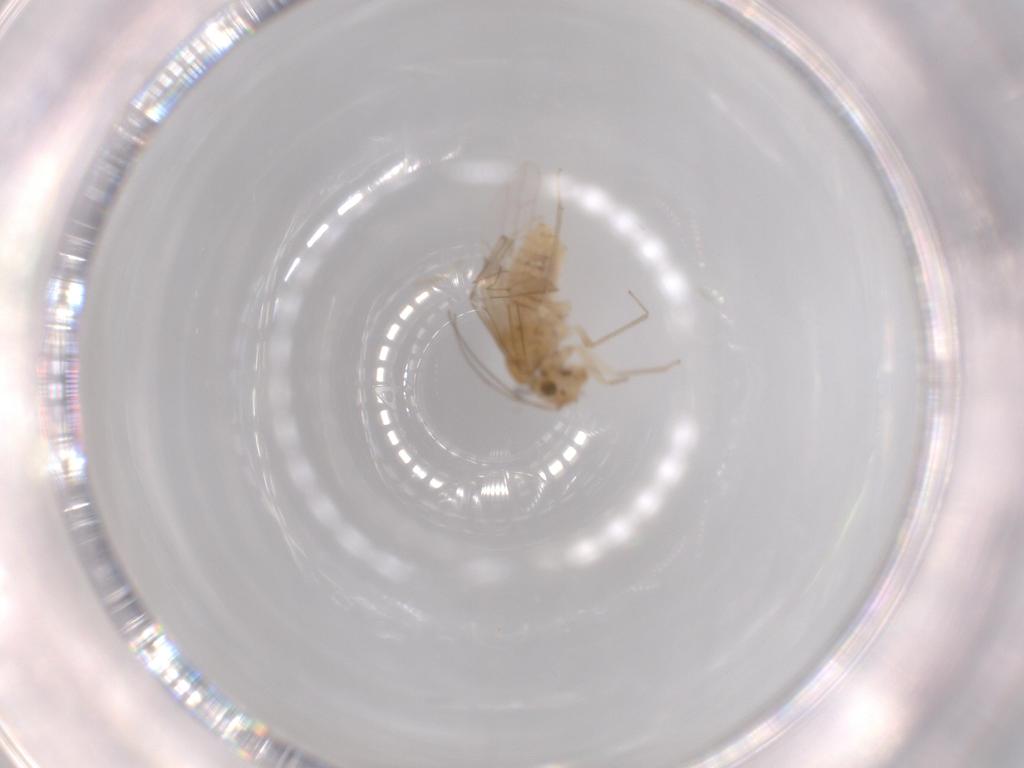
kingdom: Animalia
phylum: Arthropoda
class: Insecta
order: Psocodea
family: Lachesillidae
